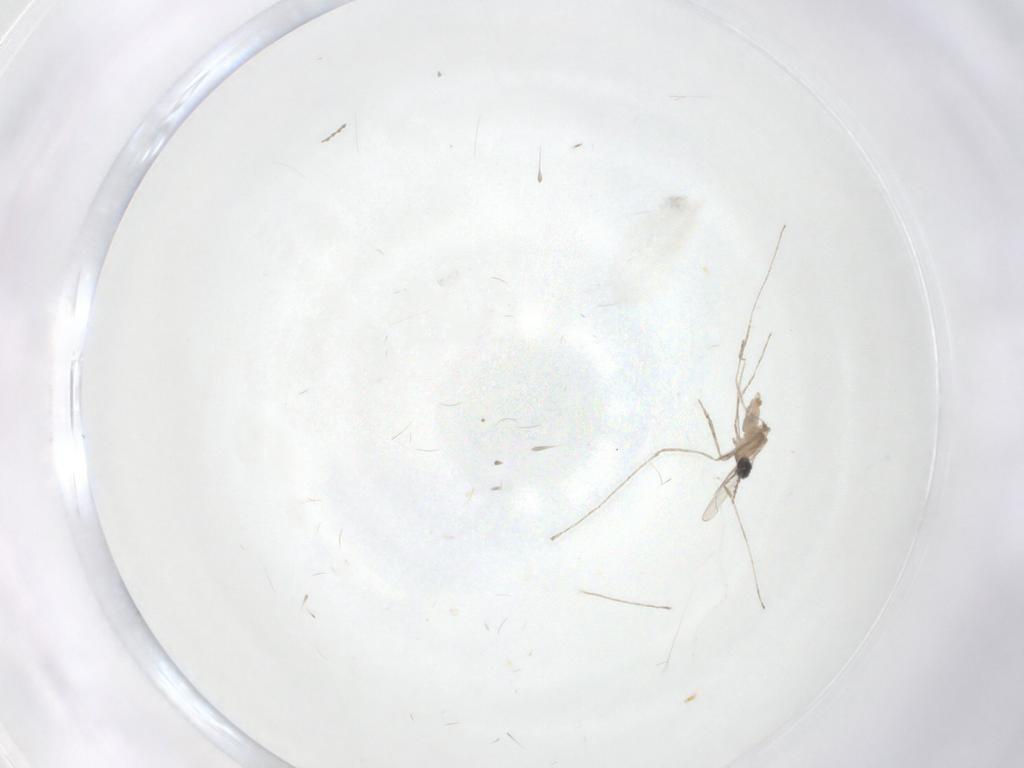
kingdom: Animalia
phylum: Arthropoda
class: Insecta
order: Diptera
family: Cecidomyiidae
